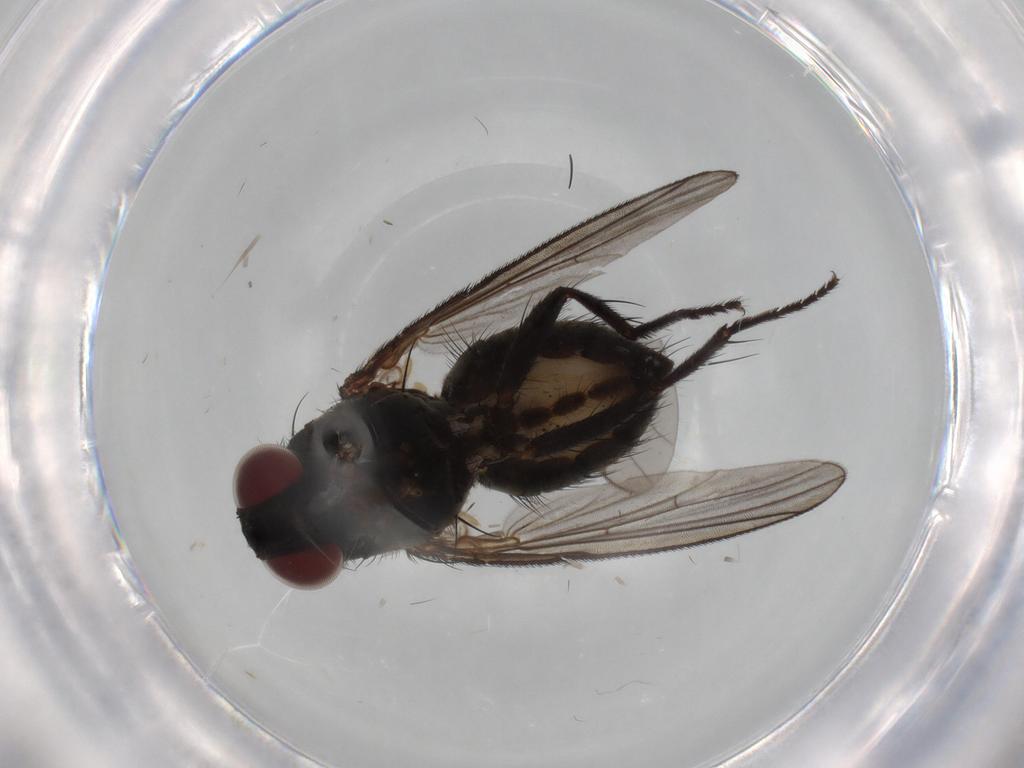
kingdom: Animalia
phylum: Arthropoda
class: Insecta
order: Diptera
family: Muscidae
